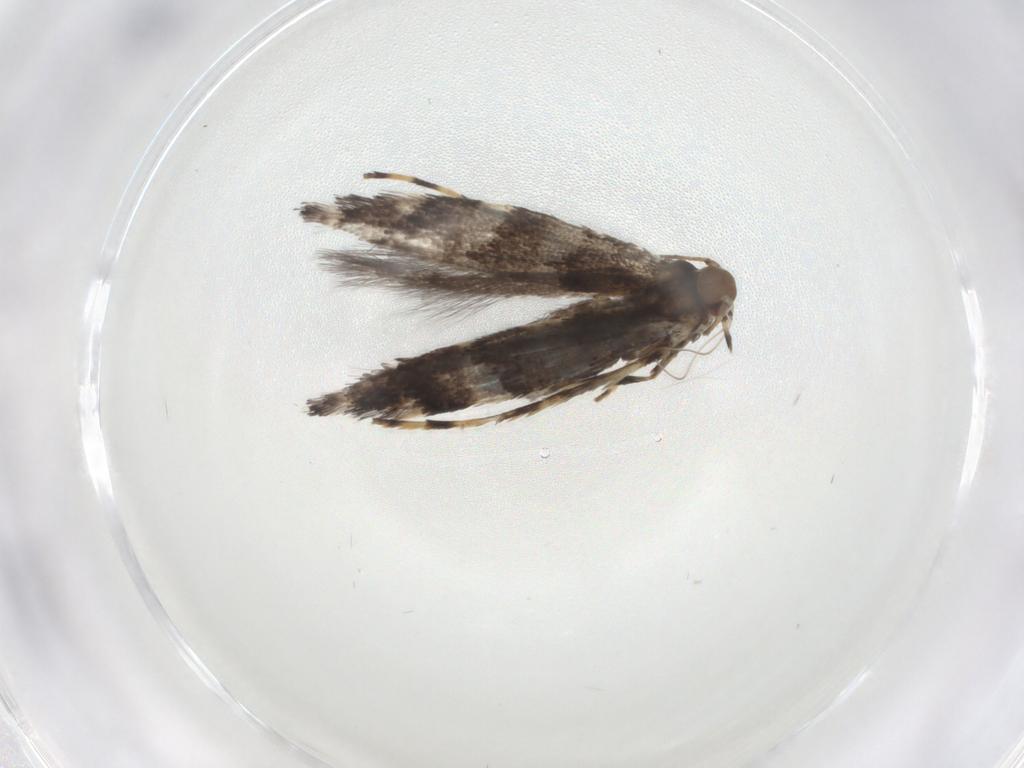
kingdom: Animalia
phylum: Arthropoda
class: Insecta
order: Lepidoptera
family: Gracillariidae
